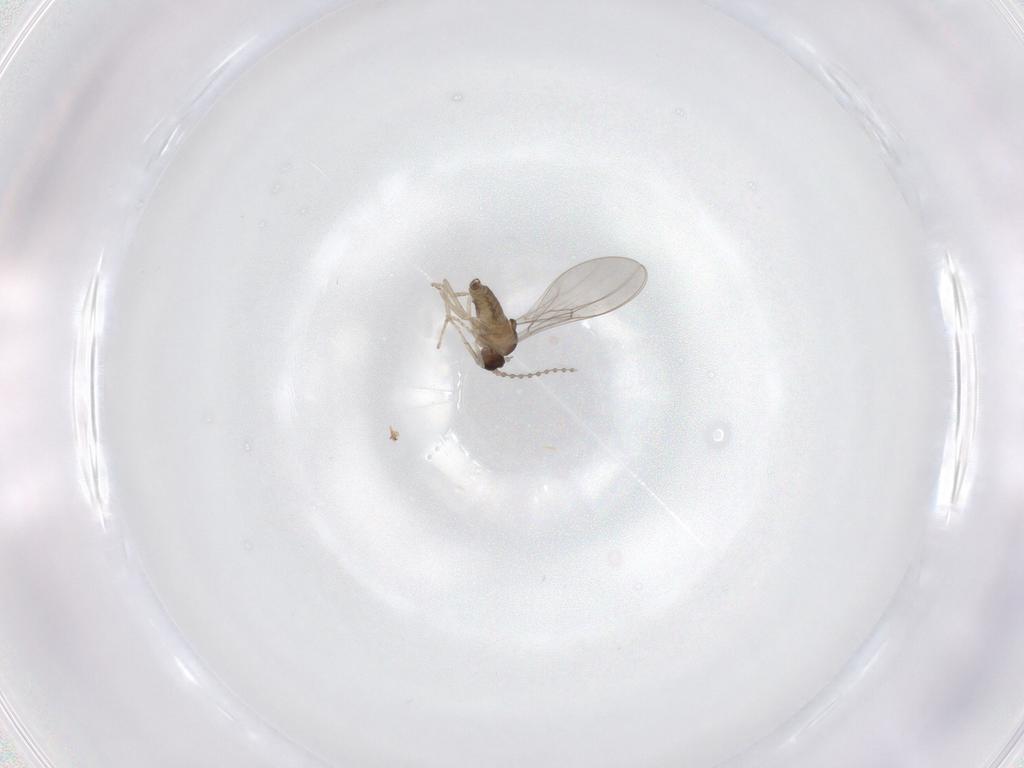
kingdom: Animalia
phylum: Arthropoda
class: Insecta
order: Diptera
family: Cecidomyiidae
